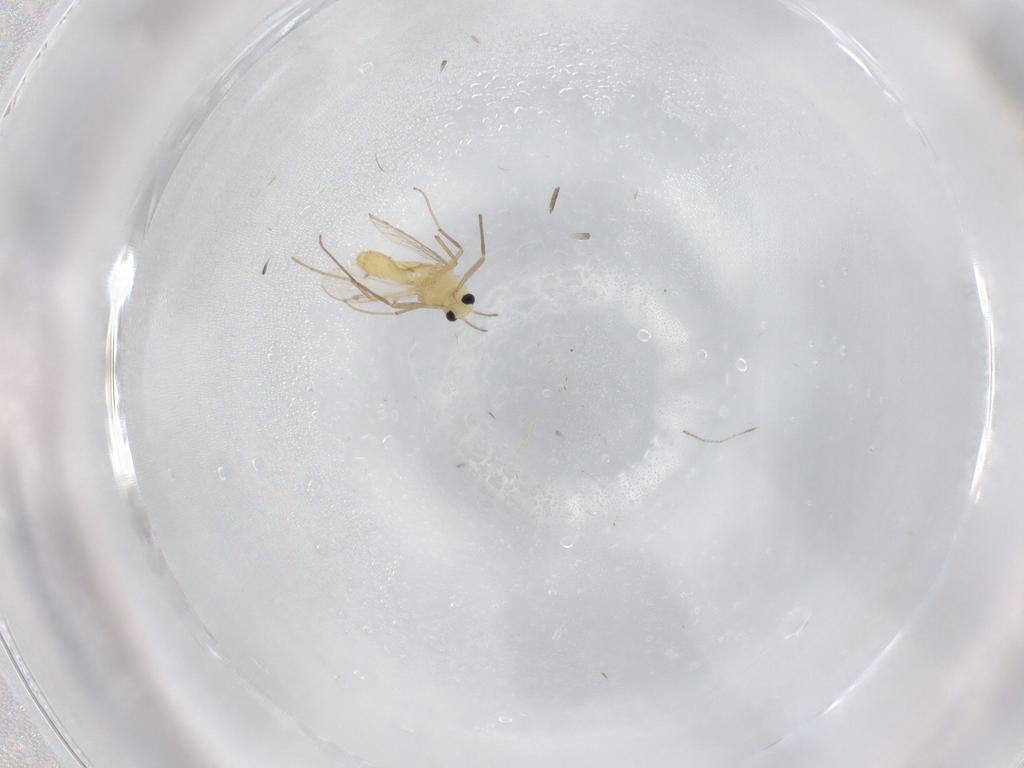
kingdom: Animalia
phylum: Arthropoda
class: Insecta
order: Diptera
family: Chironomidae
